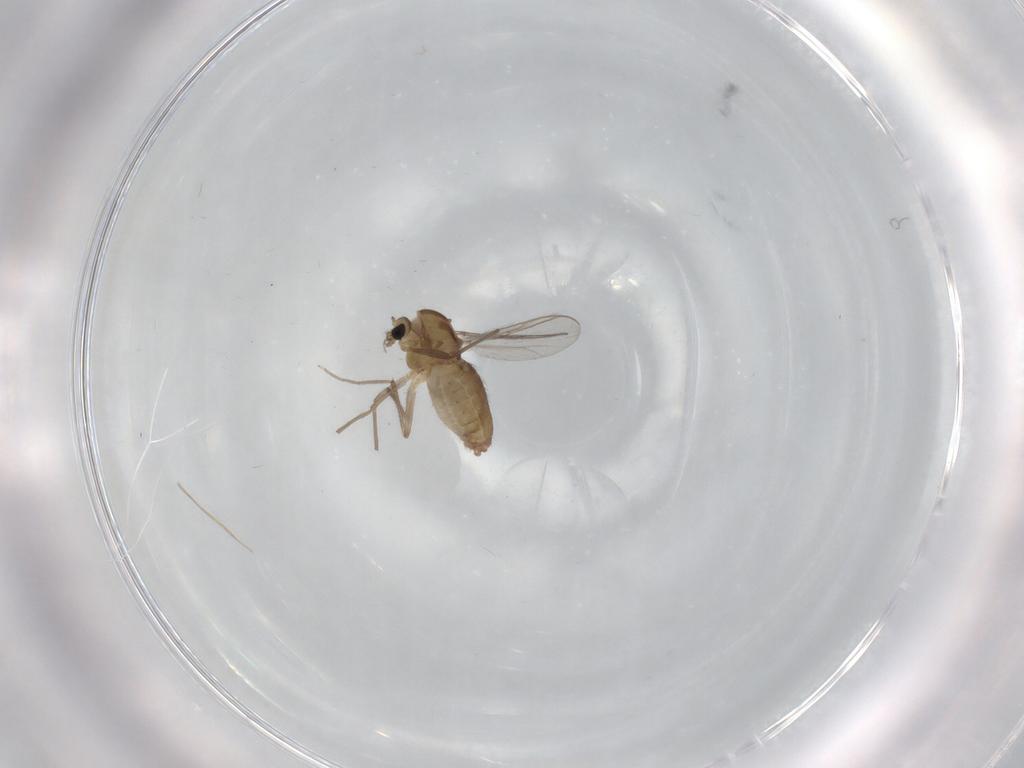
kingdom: Animalia
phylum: Arthropoda
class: Insecta
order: Diptera
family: Chironomidae
